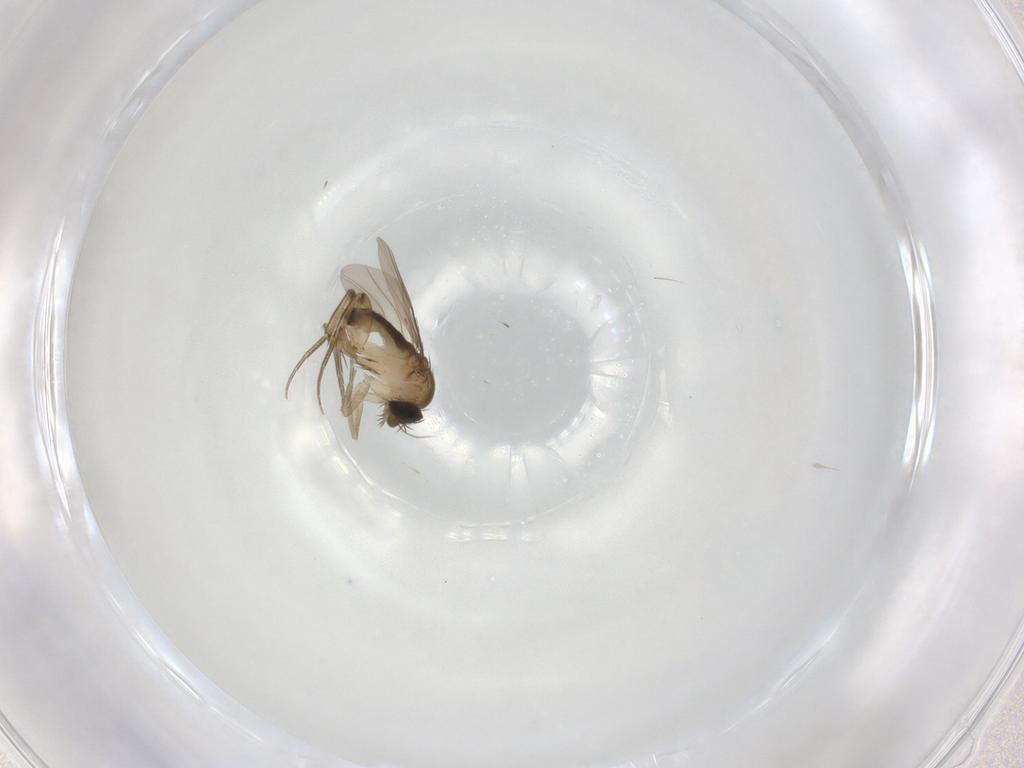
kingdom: Animalia
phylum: Arthropoda
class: Insecta
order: Diptera
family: Phoridae
